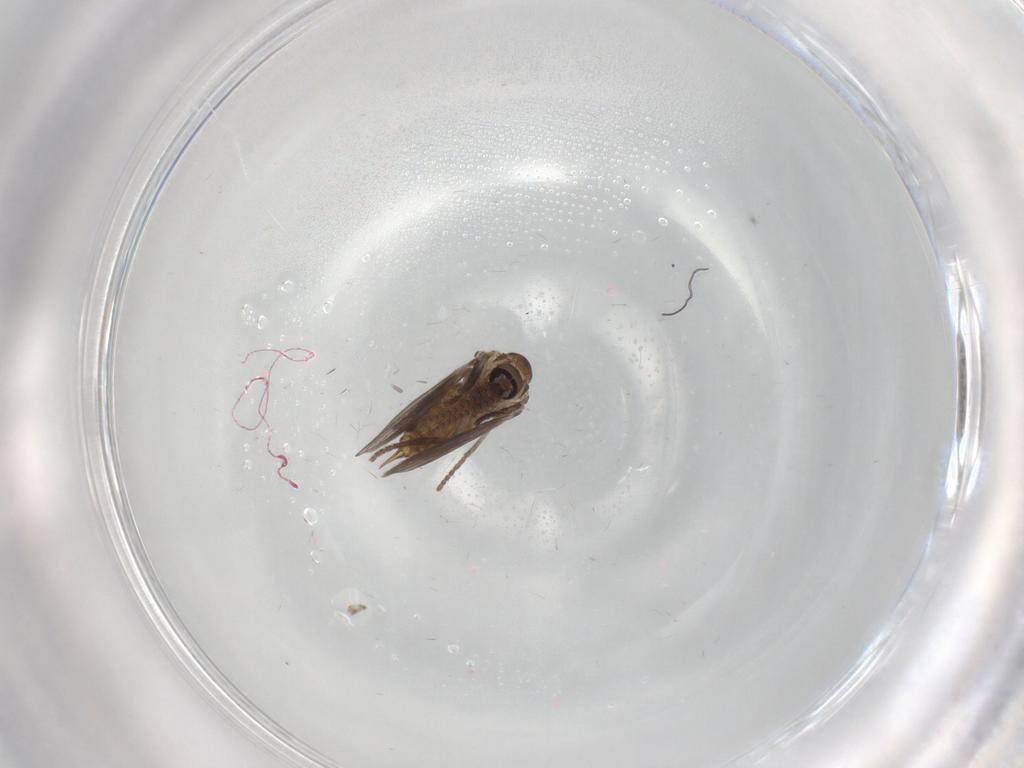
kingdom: Animalia
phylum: Arthropoda
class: Insecta
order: Diptera
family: Psychodidae
